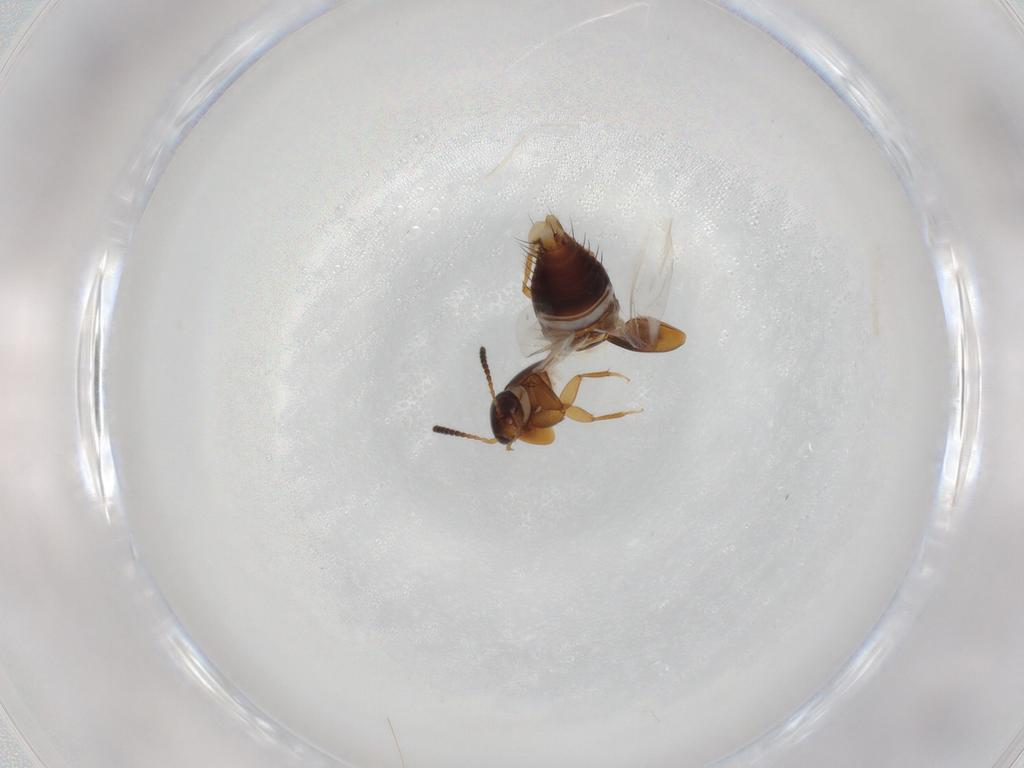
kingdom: Animalia
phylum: Arthropoda
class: Insecta
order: Coleoptera
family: Staphylinidae
